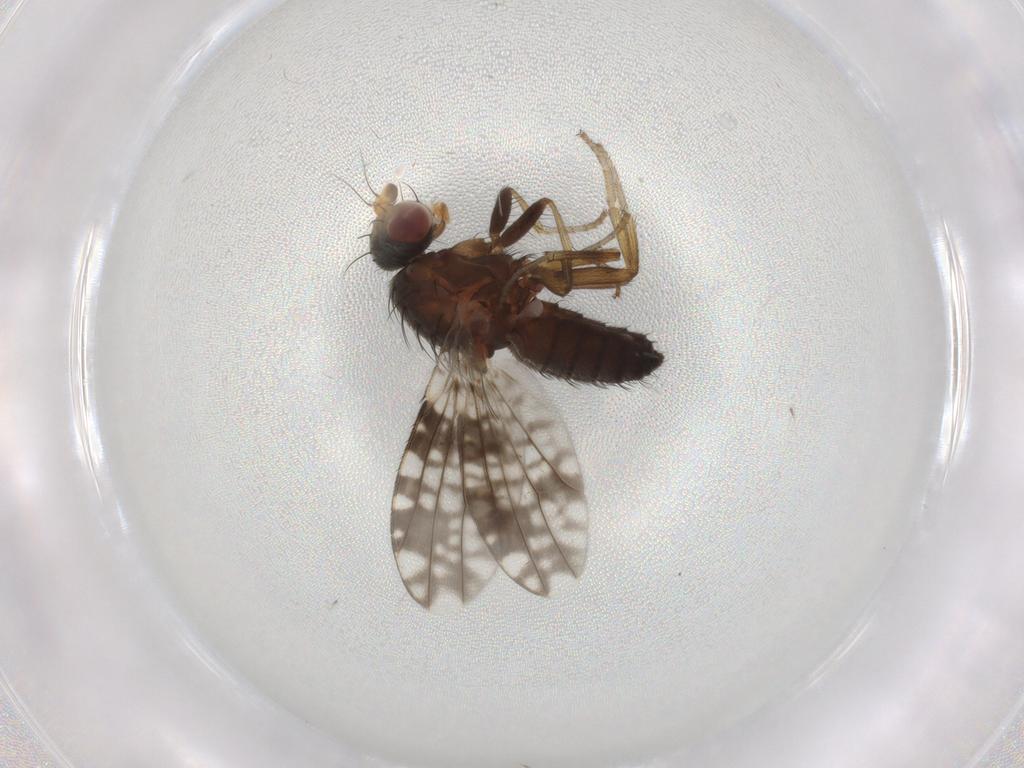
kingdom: Animalia
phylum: Arthropoda
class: Insecta
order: Diptera
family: Tephritidae
